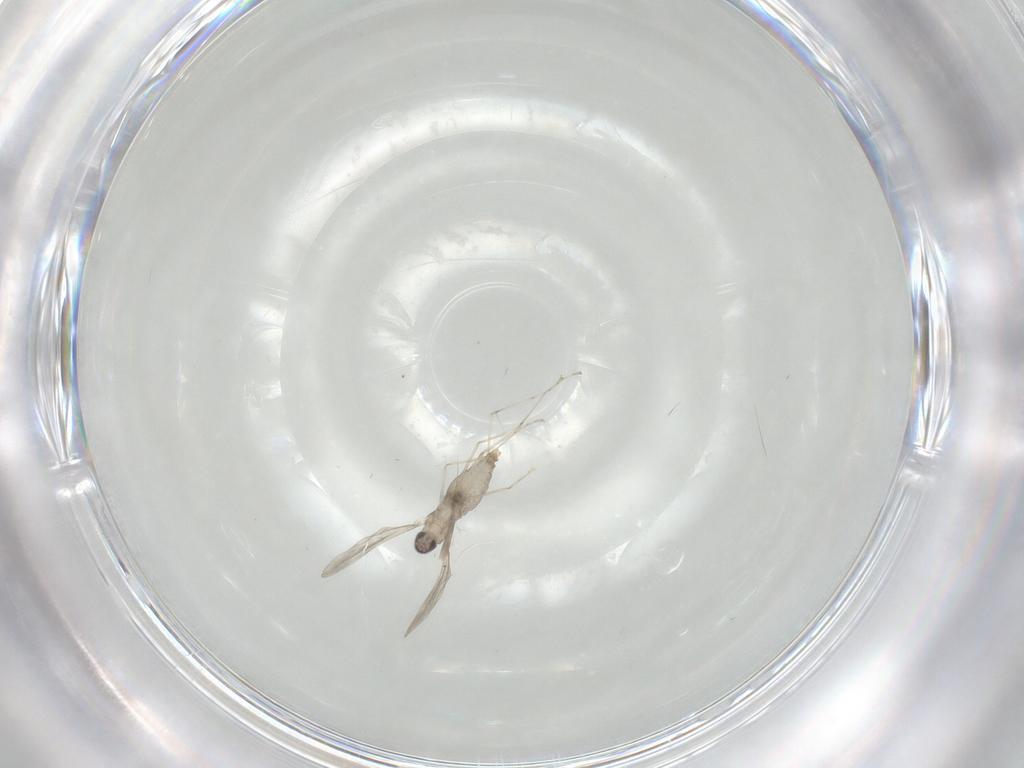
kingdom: Animalia
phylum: Arthropoda
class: Insecta
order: Diptera
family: Cecidomyiidae
